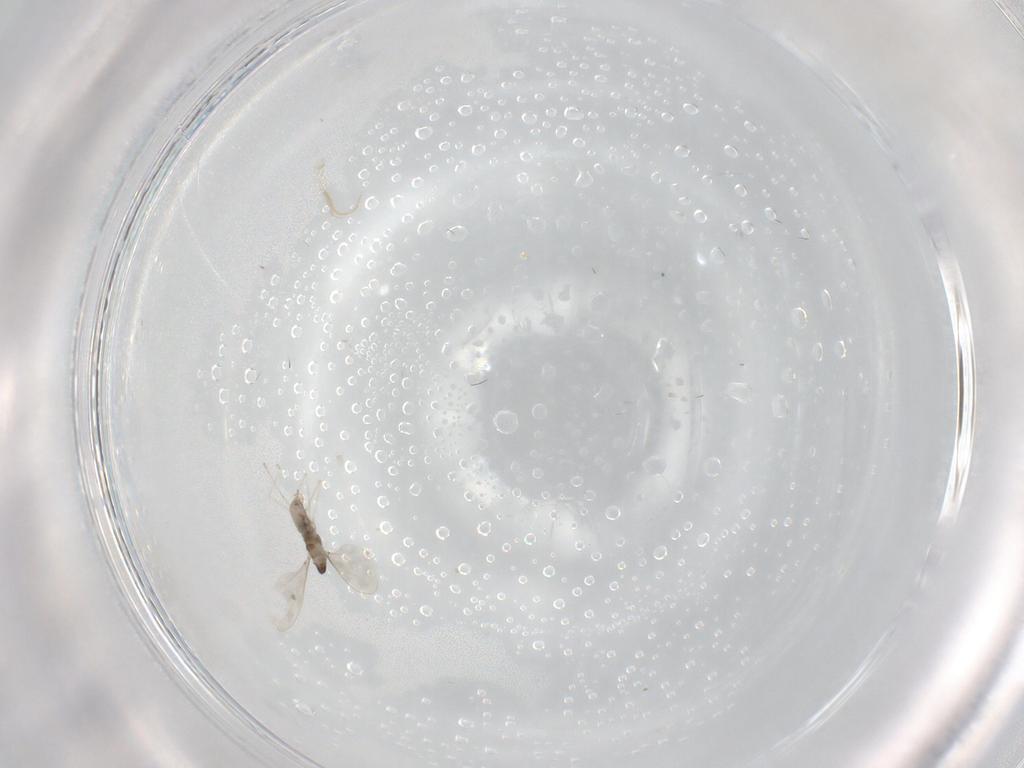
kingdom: Animalia
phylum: Arthropoda
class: Insecta
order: Diptera
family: Cecidomyiidae
